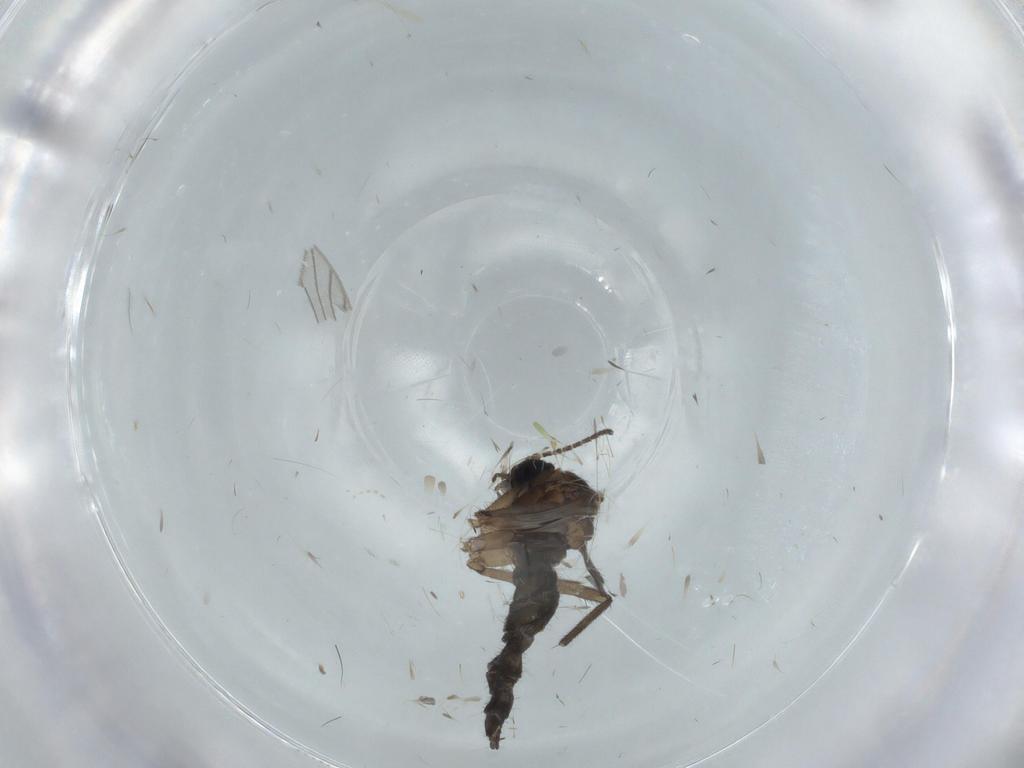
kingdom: Animalia
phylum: Arthropoda
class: Insecta
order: Diptera
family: Sciaridae
